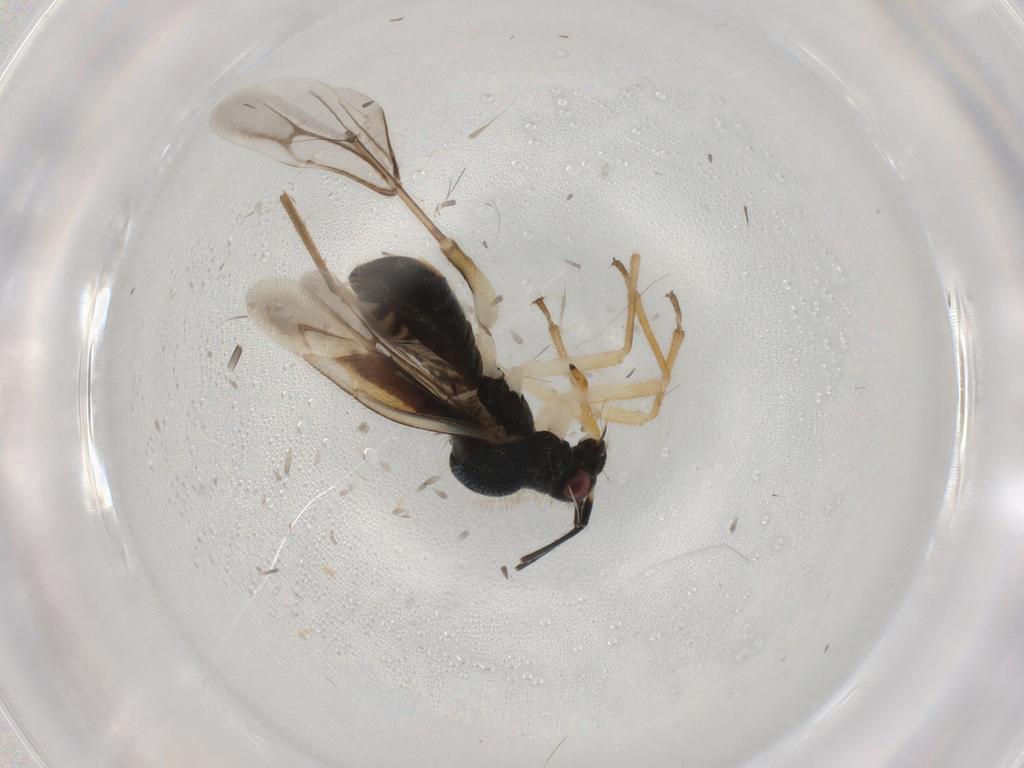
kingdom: Animalia
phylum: Arthropoda
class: Insecta
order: Hemiptera
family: Miridae
